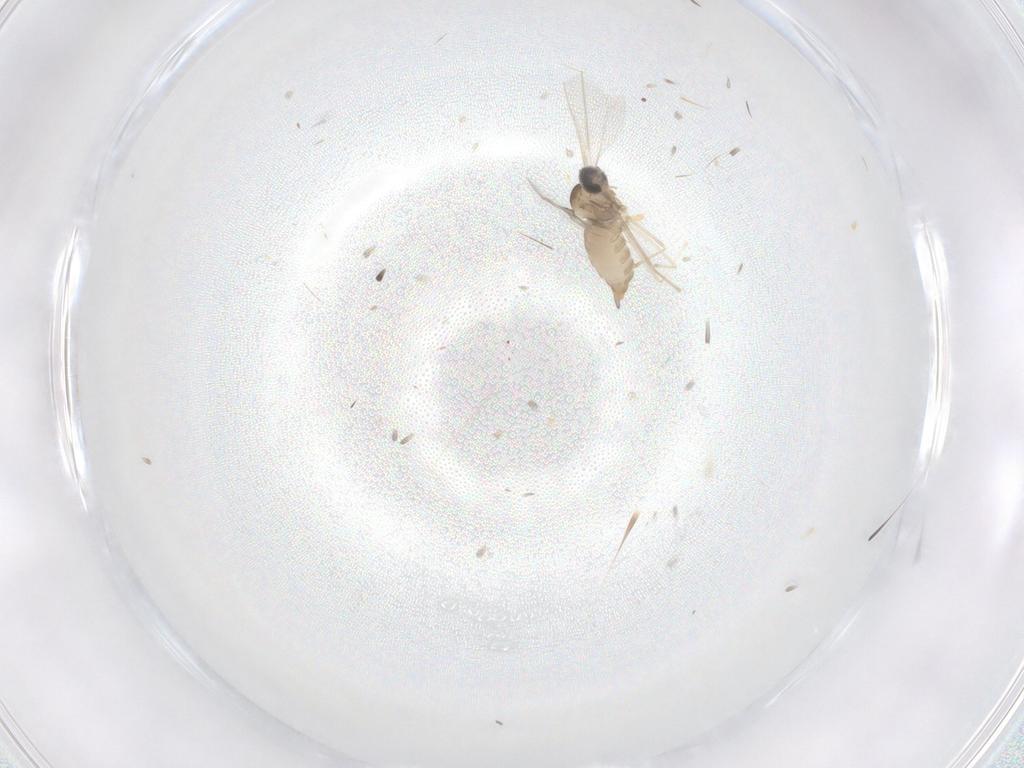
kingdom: Animalia
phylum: Arthropoda
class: Insecta
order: Diptera
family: Cecidomyiidae
